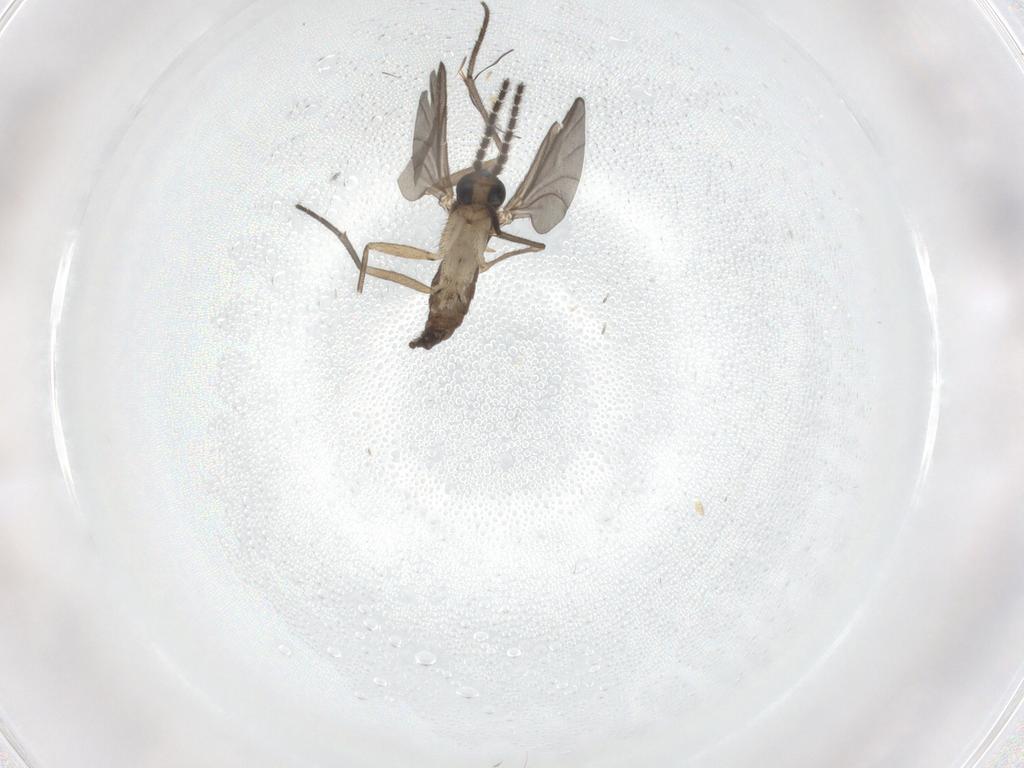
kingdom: Animalia
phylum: Arthropoda
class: Insecta
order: Diptera
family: Sciaridae
